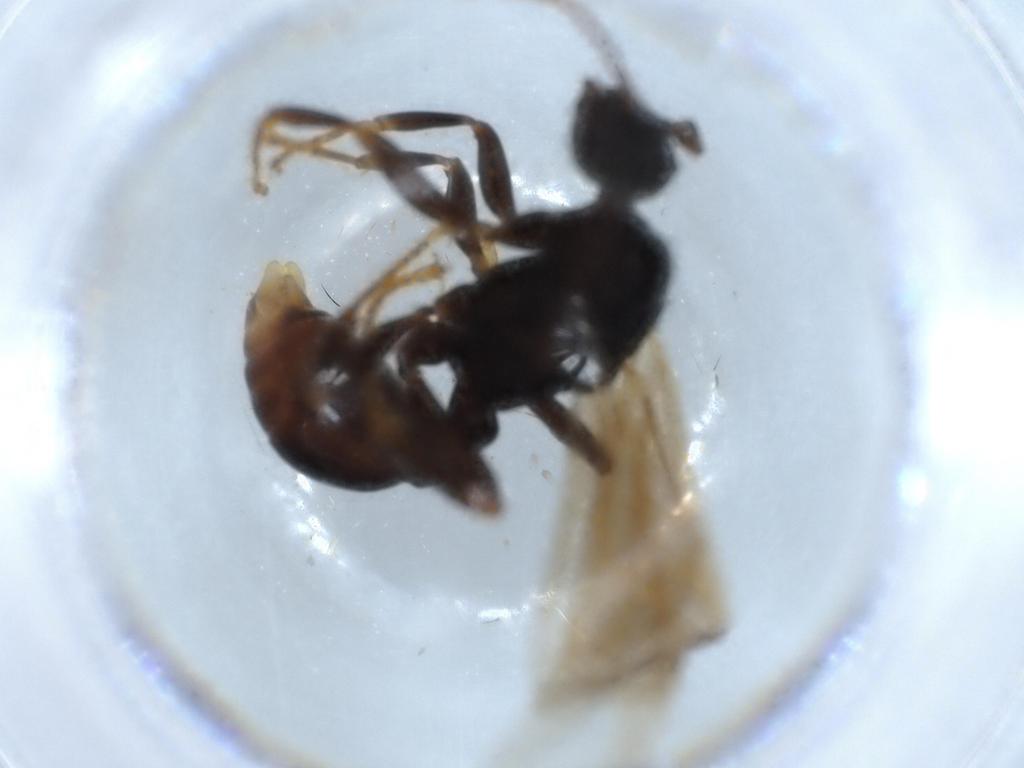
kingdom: Animalia
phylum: Arthropoda
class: Insecta
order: Hymenoptera
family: Formicidae
